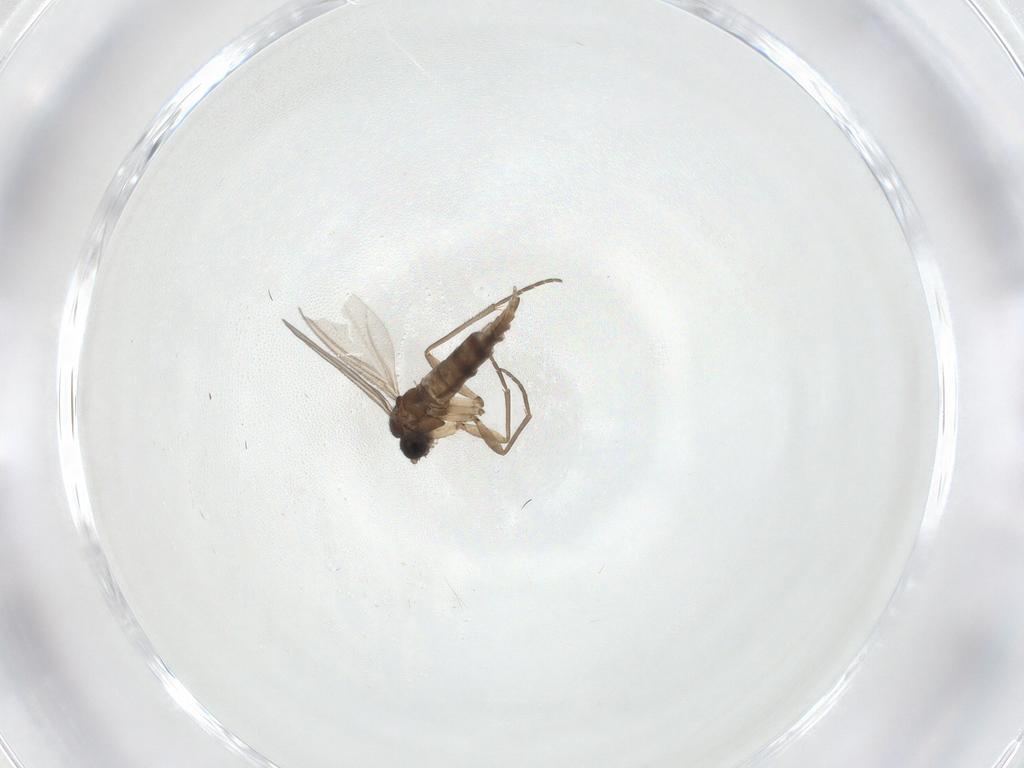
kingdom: Animalia
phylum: Arthropoda
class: Insecta
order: Diptera
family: Sciaridae
